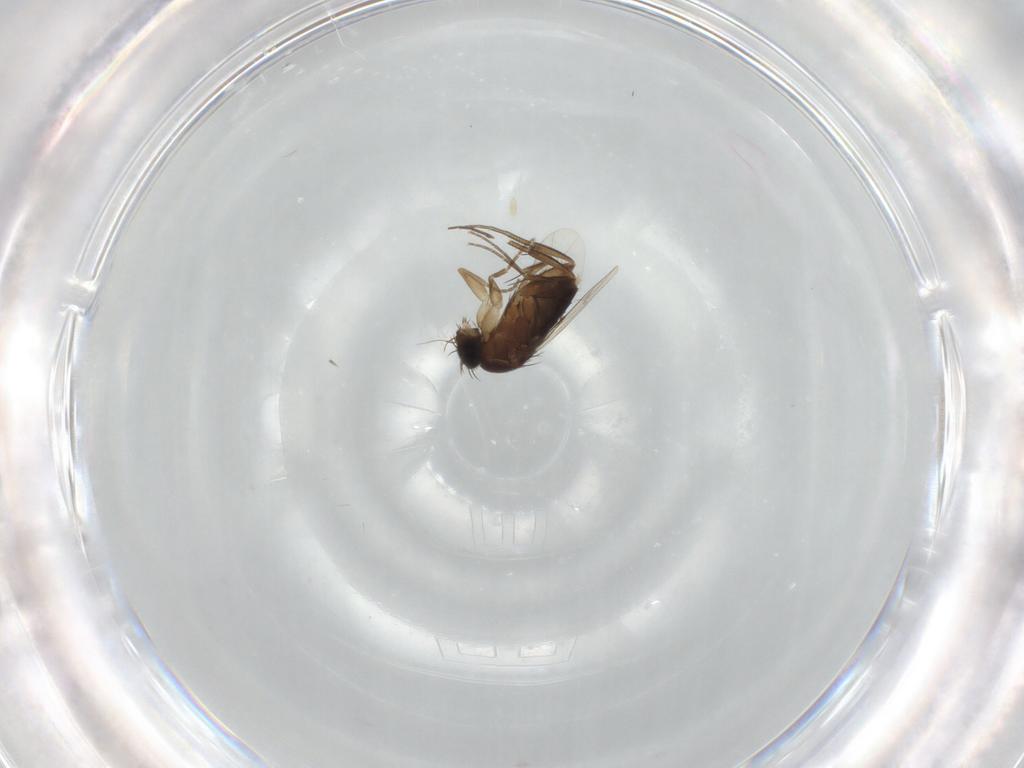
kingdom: Animalia
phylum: Arthropoda
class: Insecta
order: Diptera
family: Phoridae
